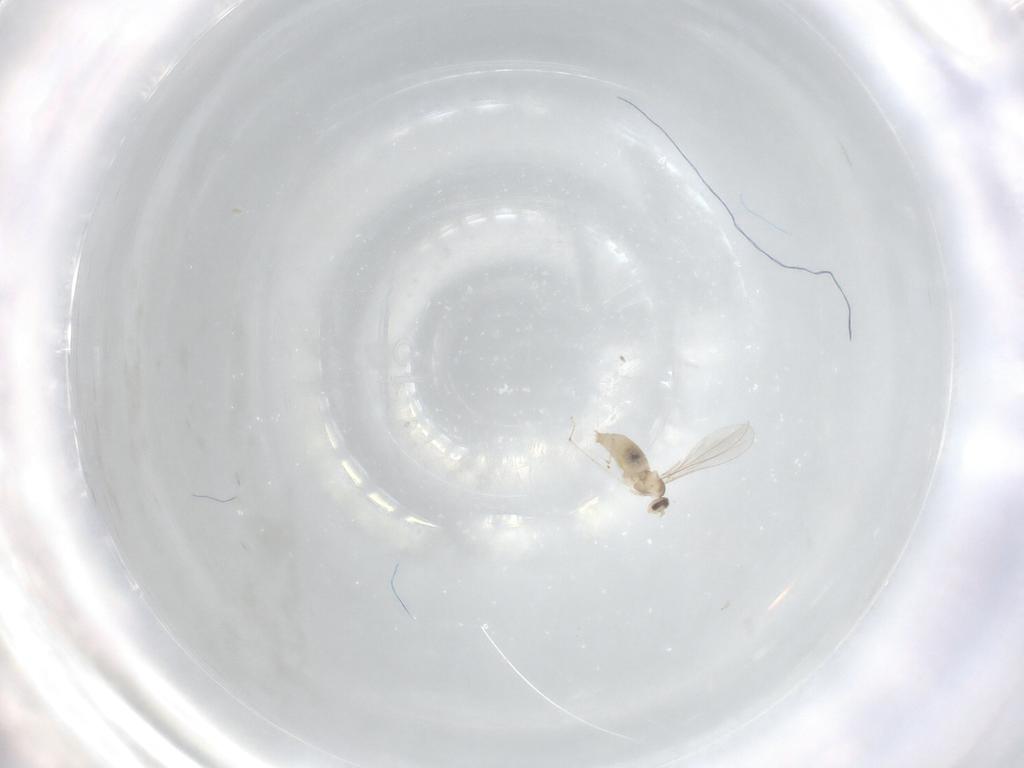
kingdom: Animalia
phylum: Arthropoda
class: Insecta
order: Diptera
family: Cecidomyiidae
